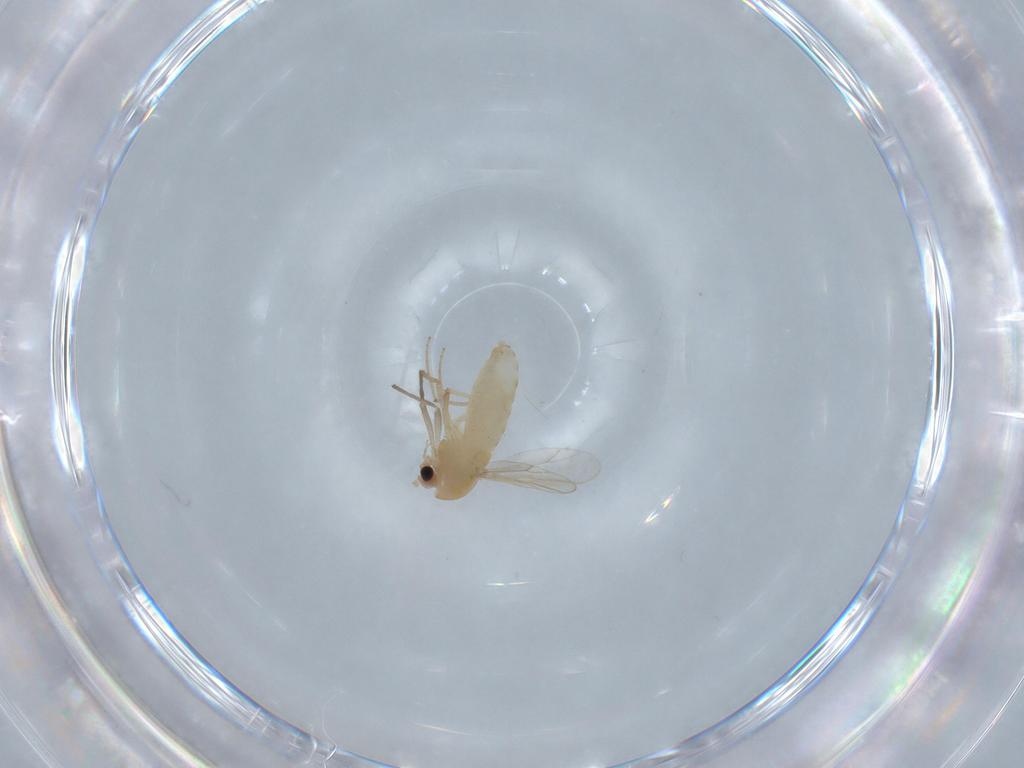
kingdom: Animalia
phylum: Arthropoda
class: Insecta
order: Diptera
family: Chironomidae
